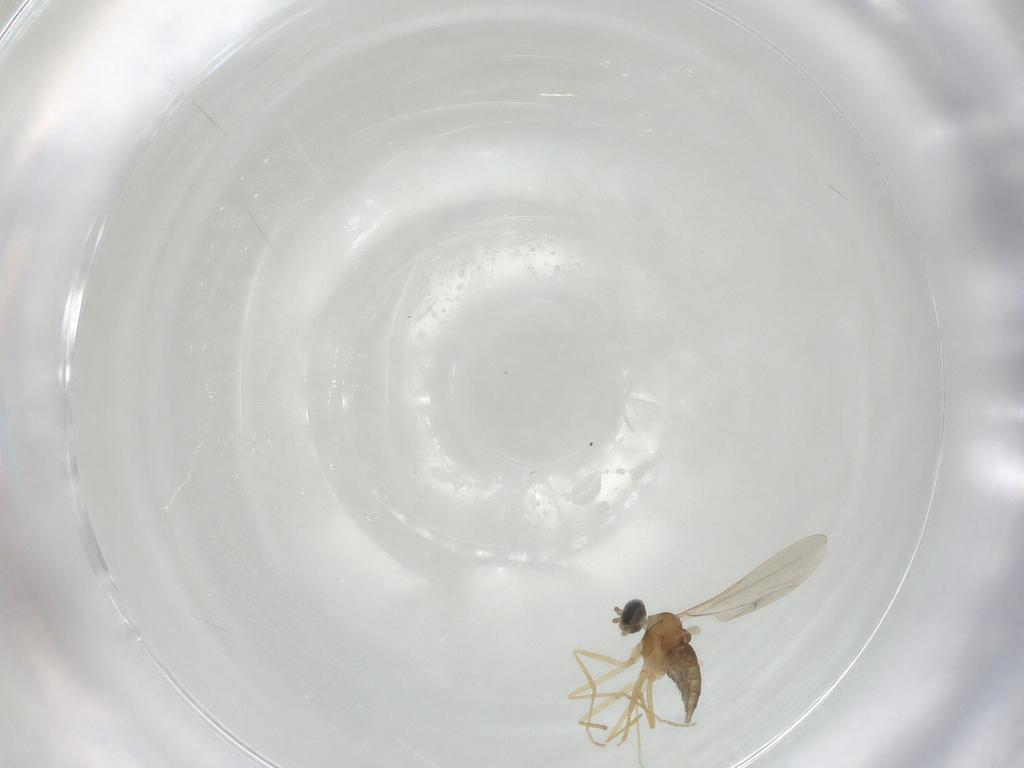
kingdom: Animalia
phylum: Arthropoda
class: Insecta
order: Diptera
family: Cecidomyiidae
